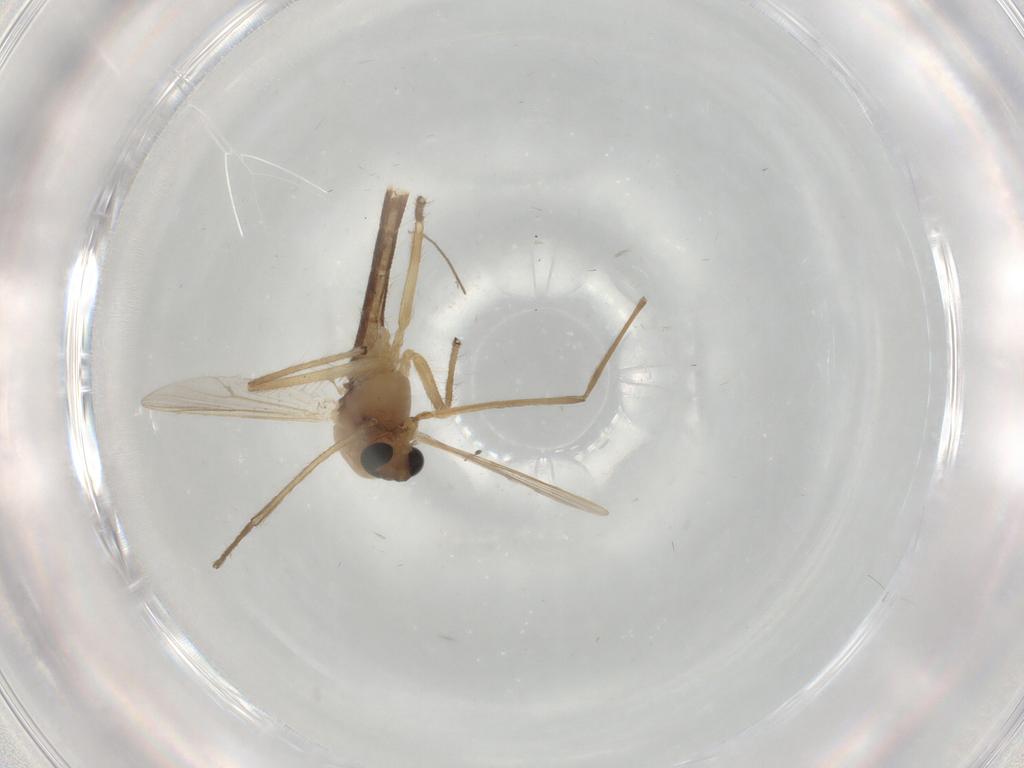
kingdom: Animalia
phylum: Arthropoda
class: Insecta
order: Diptera
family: Chironomidae
